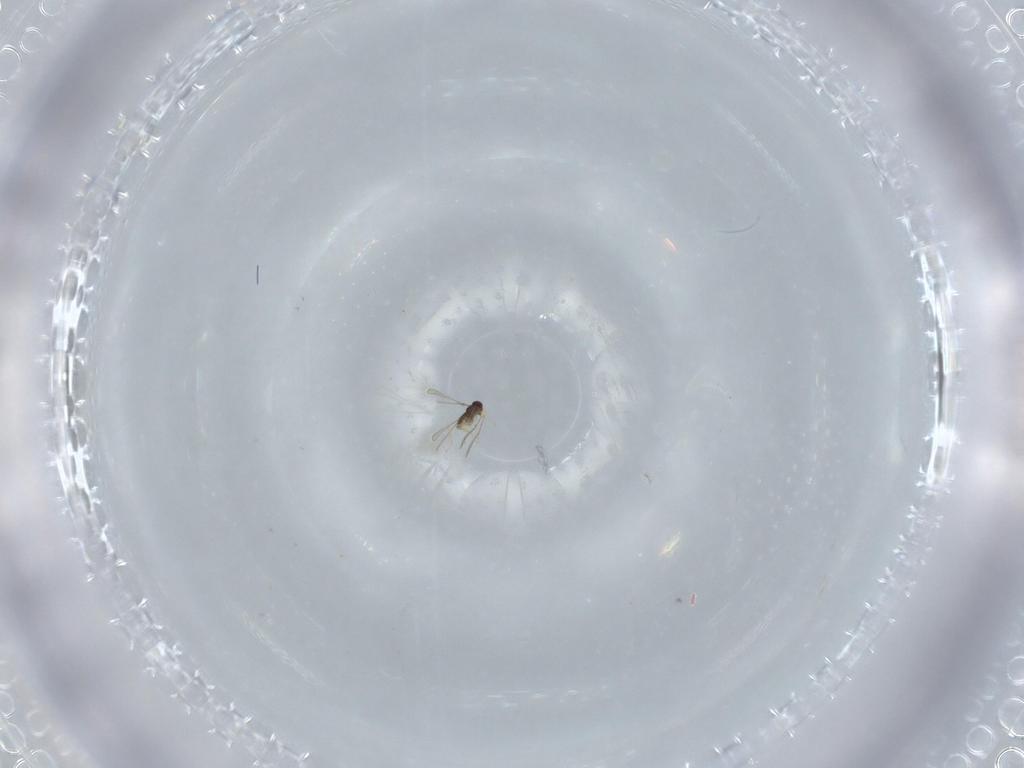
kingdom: Animalia
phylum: Arthropoda
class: Insecta
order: Hymenoptera
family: Mymaridae
